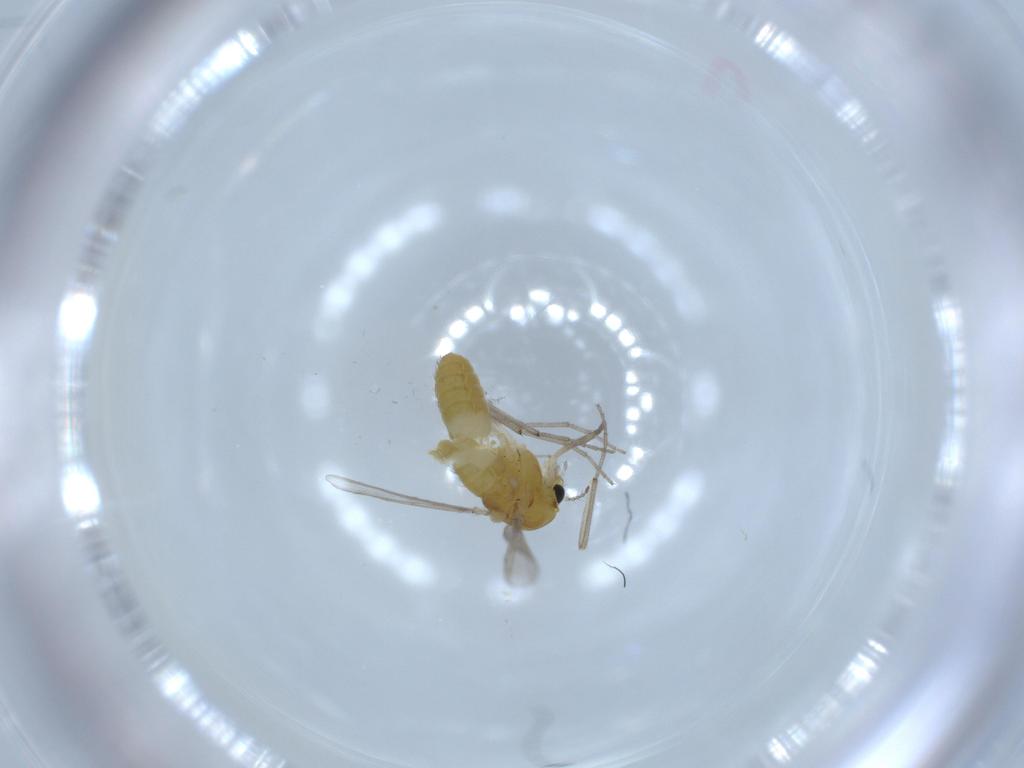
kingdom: Animalia
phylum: Arthropoda
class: Insecta
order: Diptera
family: Chironomidae
